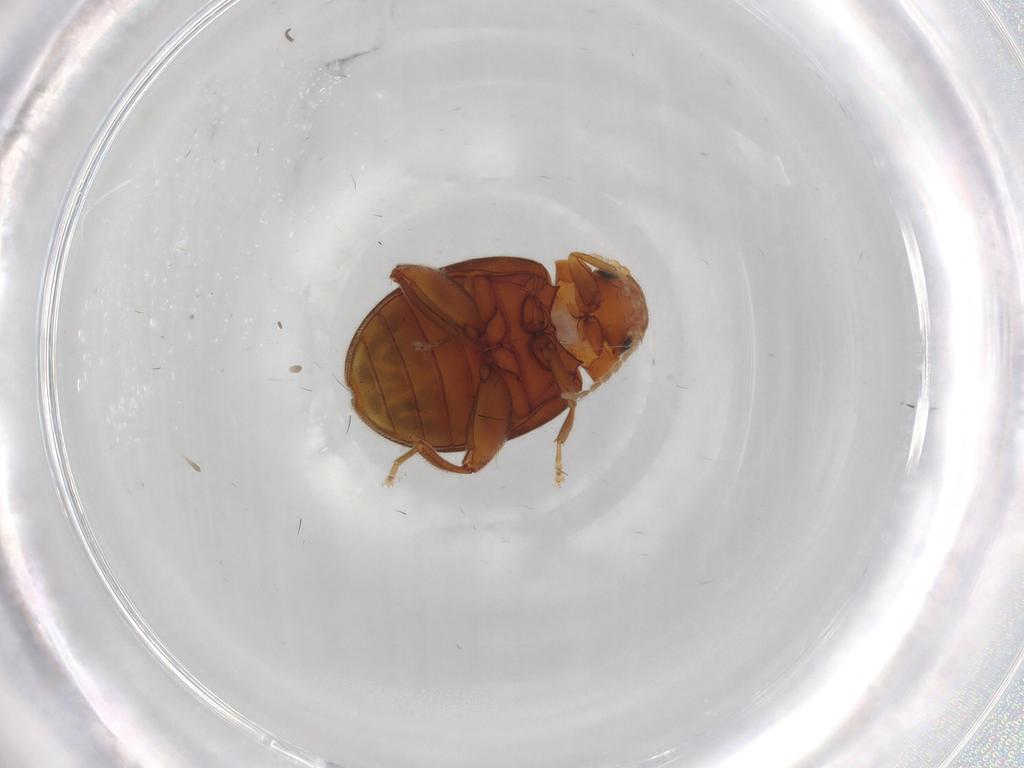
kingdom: Animalia
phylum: Arthropoda
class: Insecta
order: Coleoptera
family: Scirtidae
